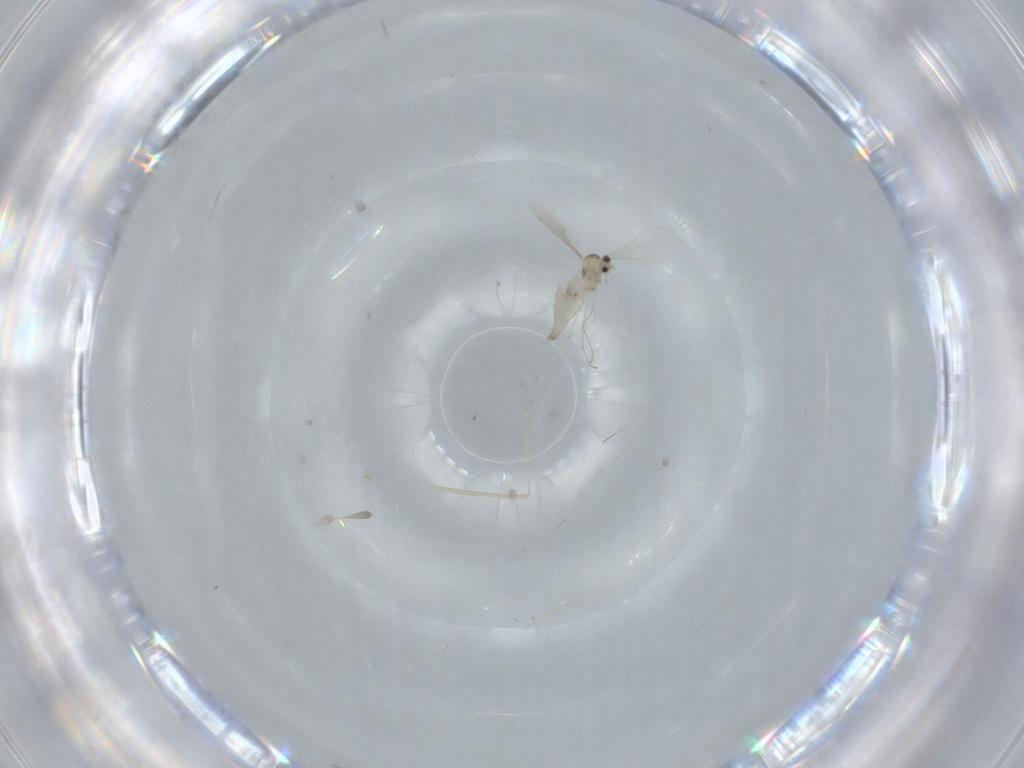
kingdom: Animalia
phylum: Arthropoda
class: Insecta
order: Diptera
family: Cecidomyiidae
